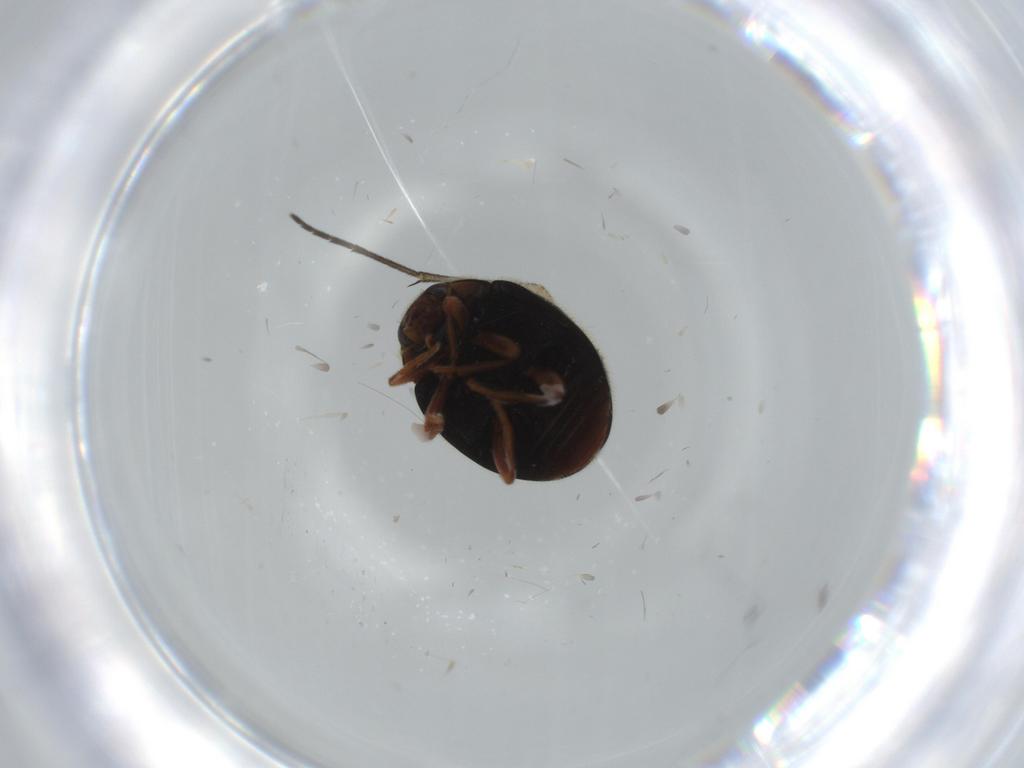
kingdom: Animalia
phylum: Arthropoda
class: Insecta
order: Coleoptera
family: Coccinellidae
